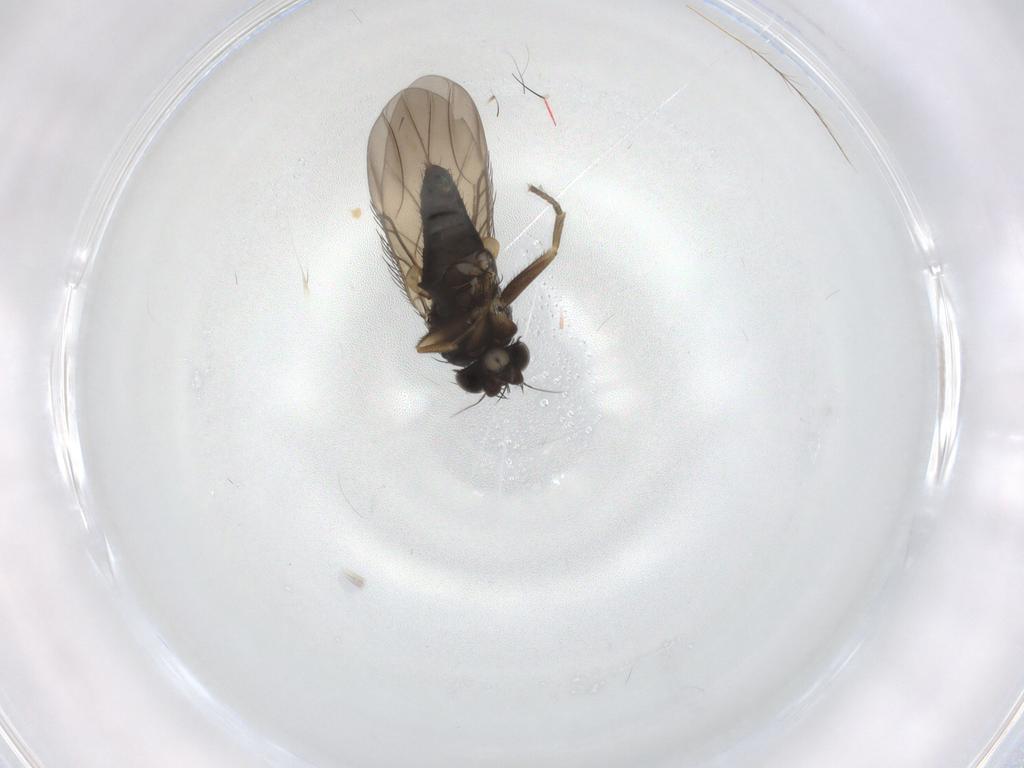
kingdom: Animalia
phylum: Arthropoda
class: Insecta
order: Diptera
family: Phoridae
